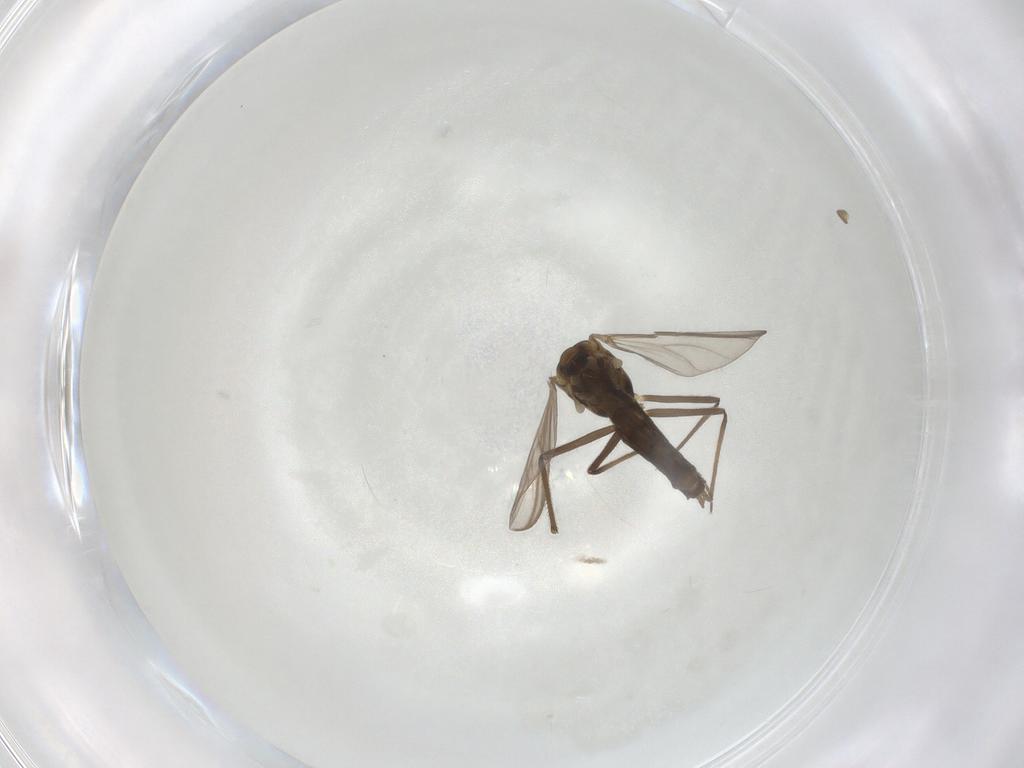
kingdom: Animalia
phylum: Arthropoda
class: Insecta
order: Diptera
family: Chironomidae
